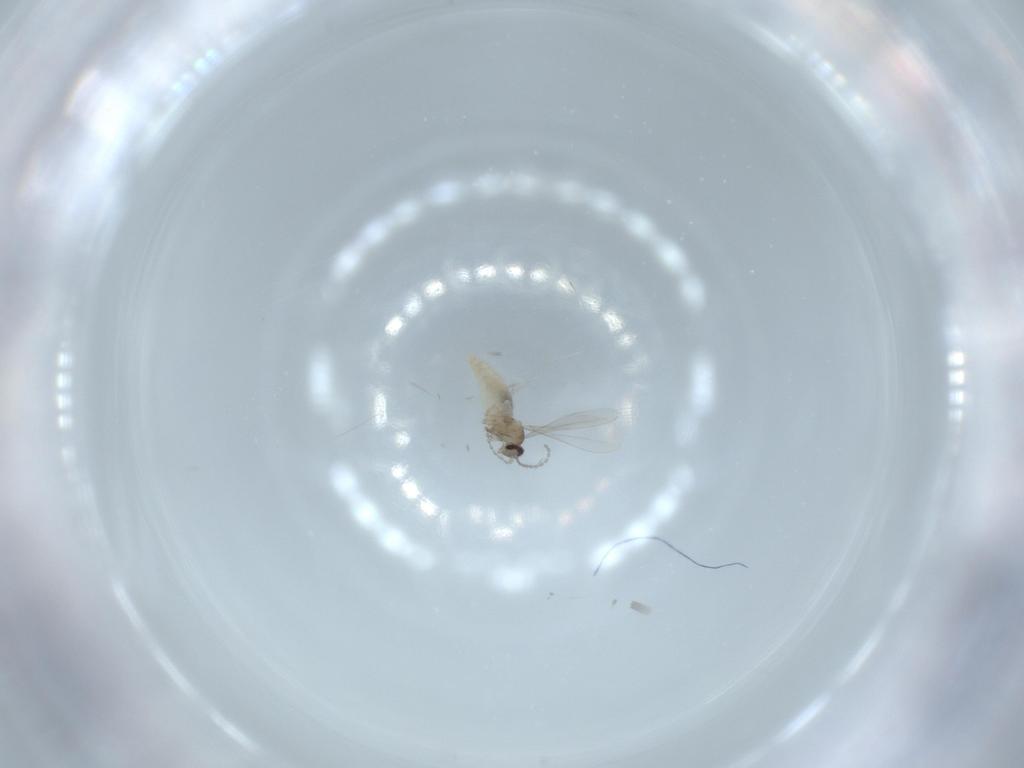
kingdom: Animalia
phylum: Arthropoda
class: Insecta
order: Diptera
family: Cecidomyiidae
